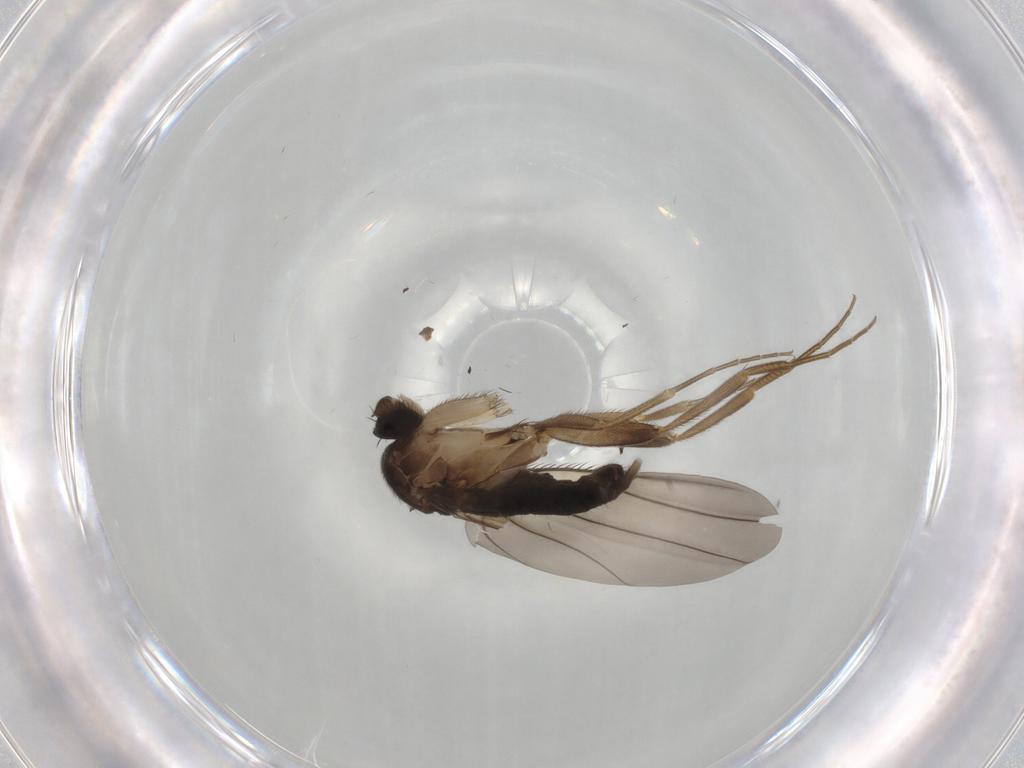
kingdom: Animalia
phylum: Arthropoda
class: Insecta
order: Diptera
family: Phoridae
